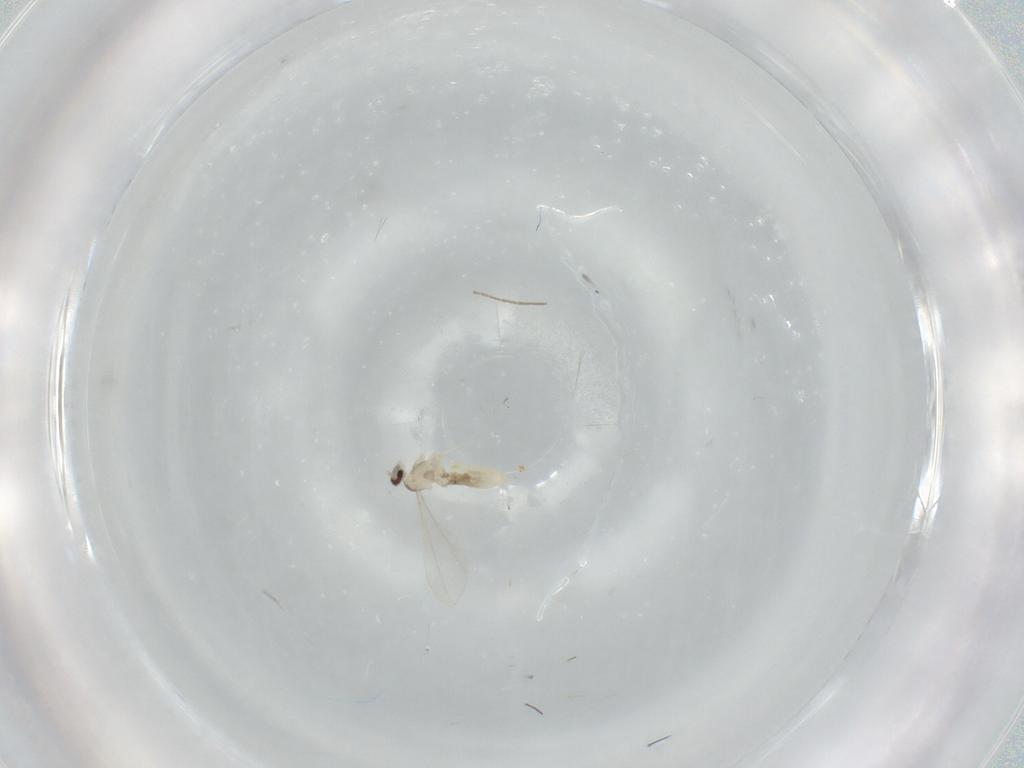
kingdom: Animalia
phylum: Arthropoda
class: Insecta
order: Diptera
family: Cecidomyiidae
